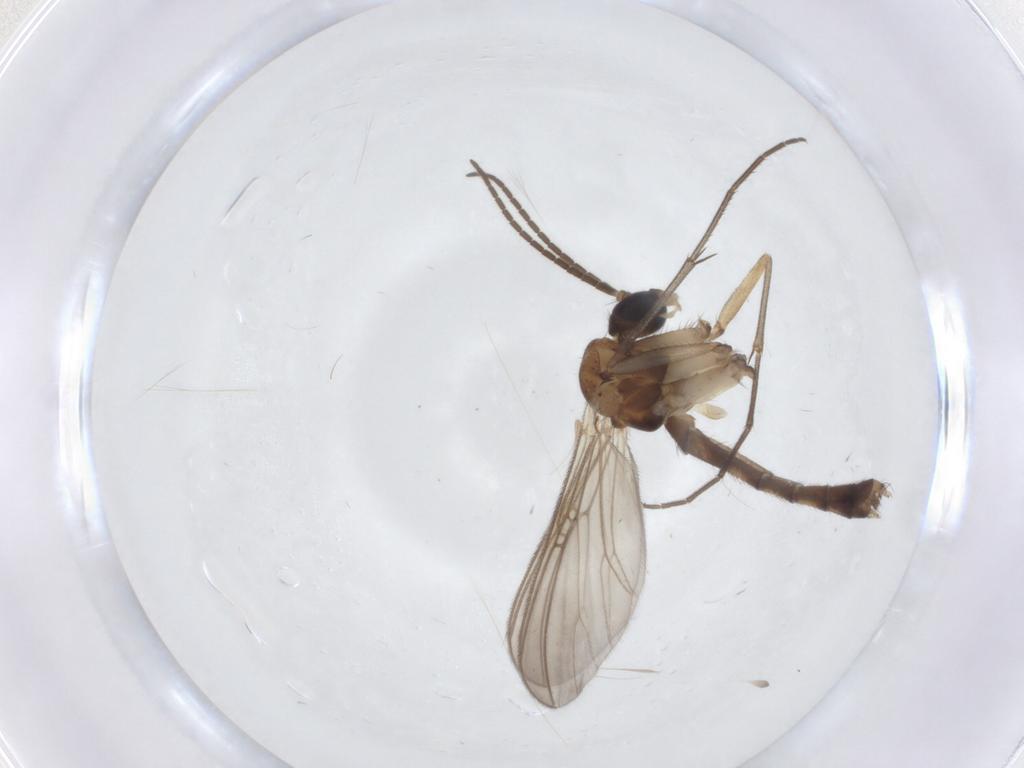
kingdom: Animalia
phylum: Arthropoda
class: Insecta
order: Diptera
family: Mycetophilidae
